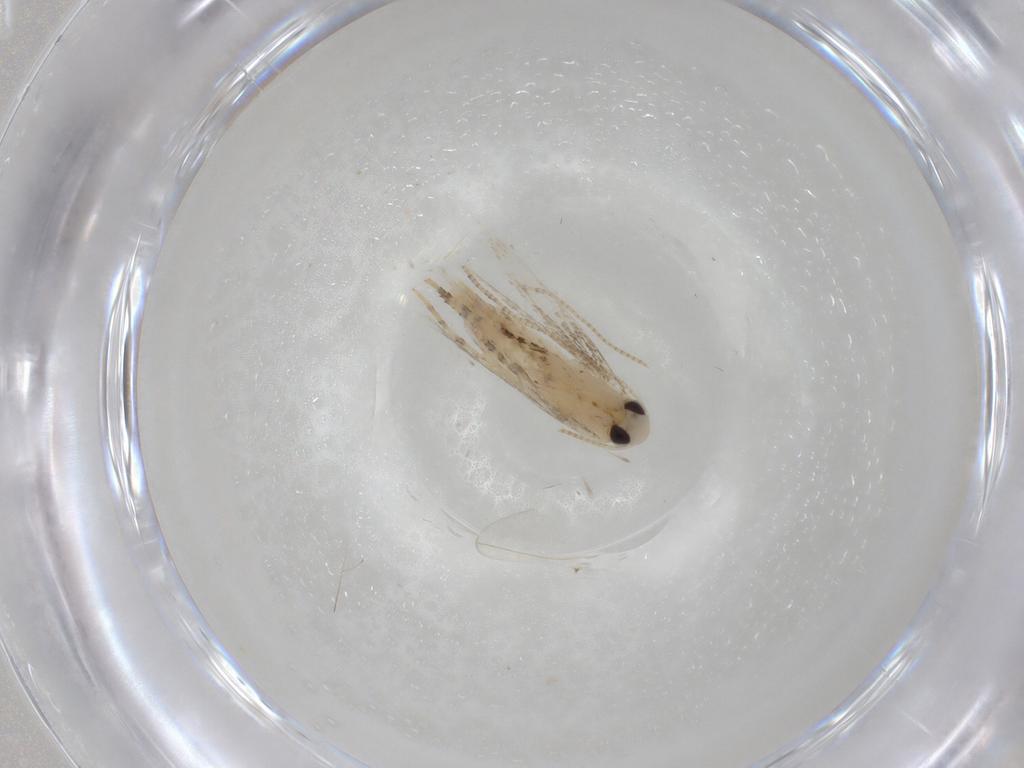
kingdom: Animalia
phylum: Arthropoda
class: Insecta
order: Lepidoptera
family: Gracillariidae
